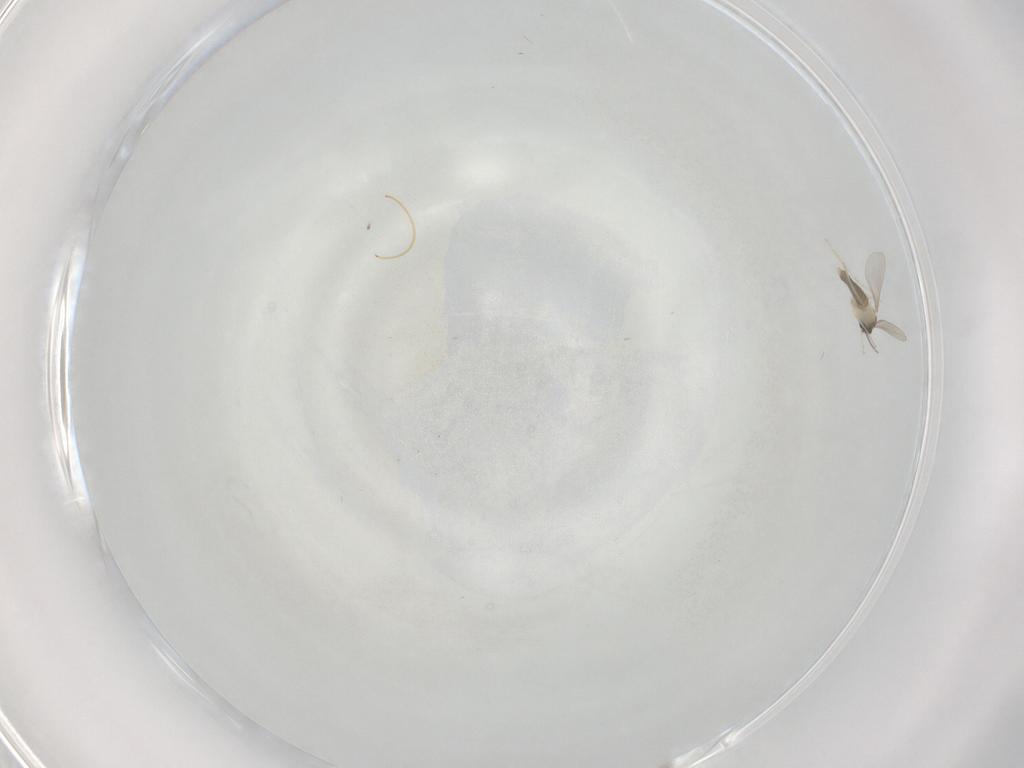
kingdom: Animalia
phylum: Arthropoda
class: Insecta
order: Diptera
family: Cecidomyiidae
